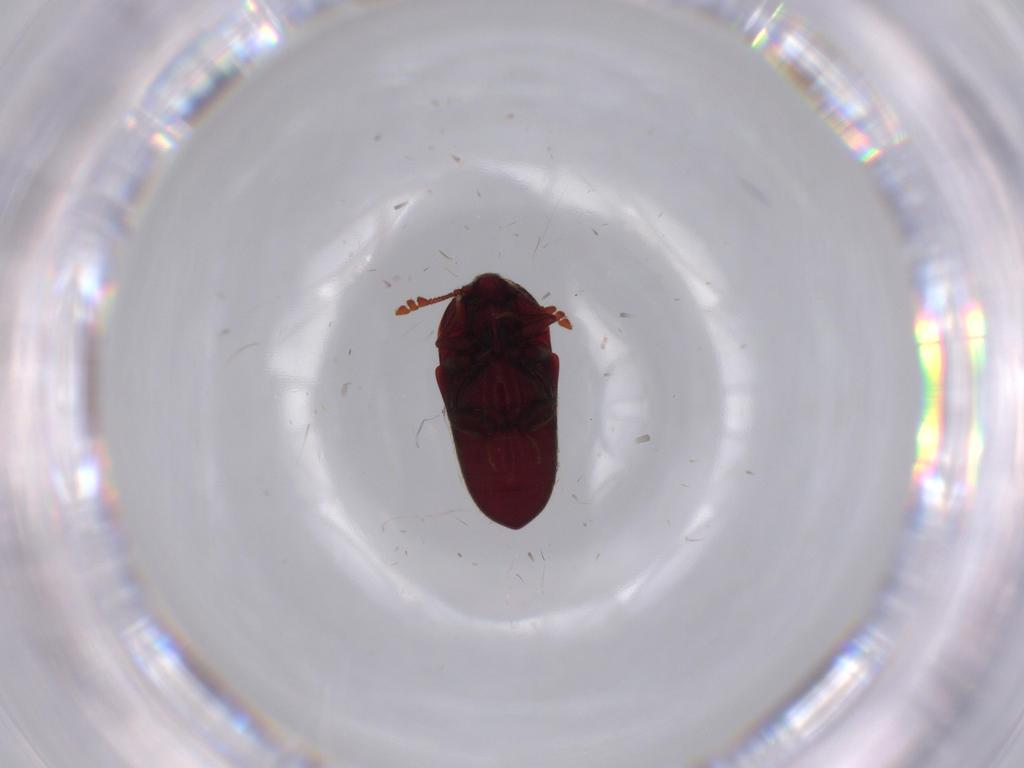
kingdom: Animalia
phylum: Arthropoda
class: Insecta
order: Coleoptera
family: Throscidae
